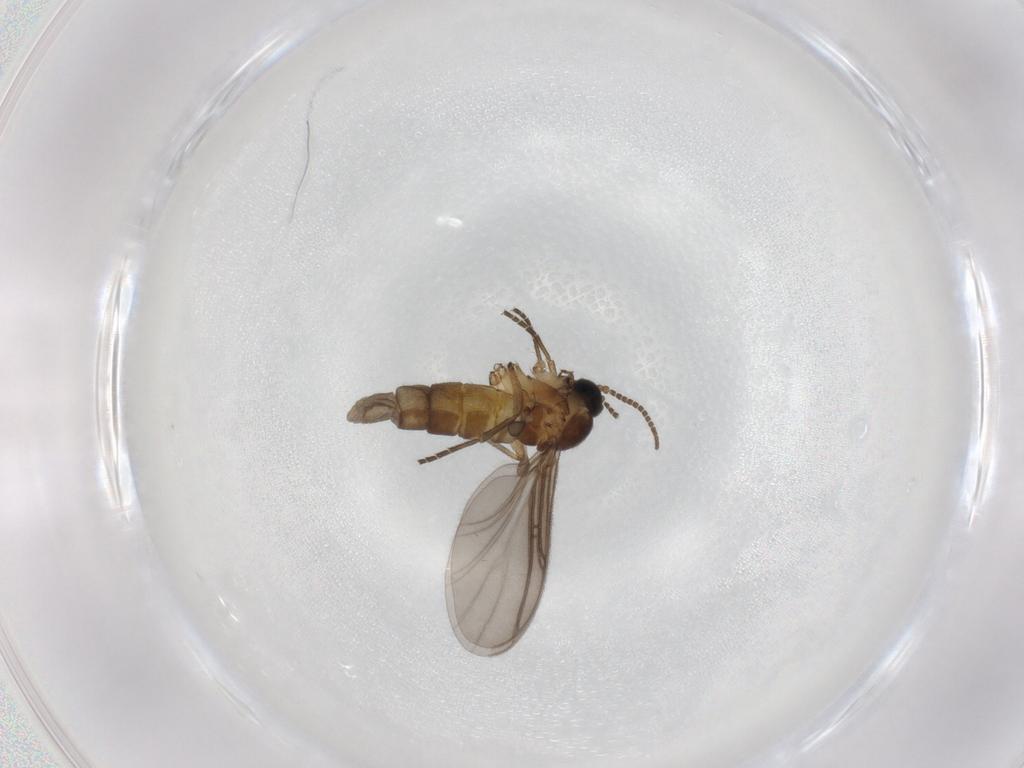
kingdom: Animalia
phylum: Arthropoda
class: Insecta
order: Diptera
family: Sciaridae
